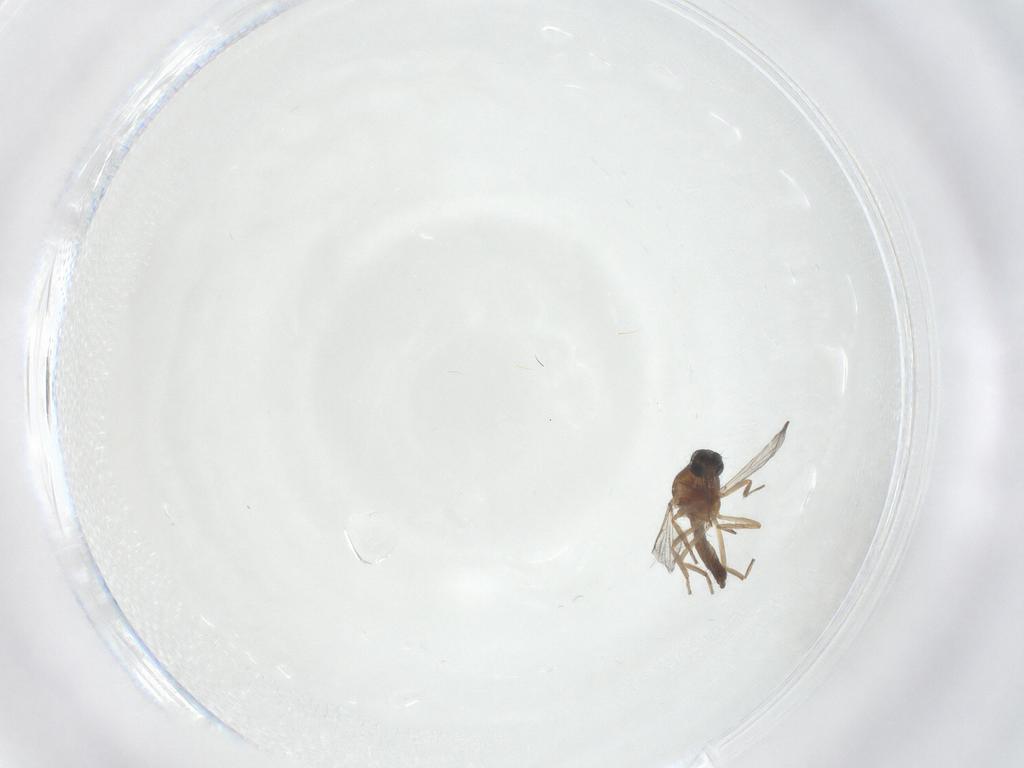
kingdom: Animalia
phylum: Arthropoda
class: Insecta
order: Diptera
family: Ceratopogonidae
